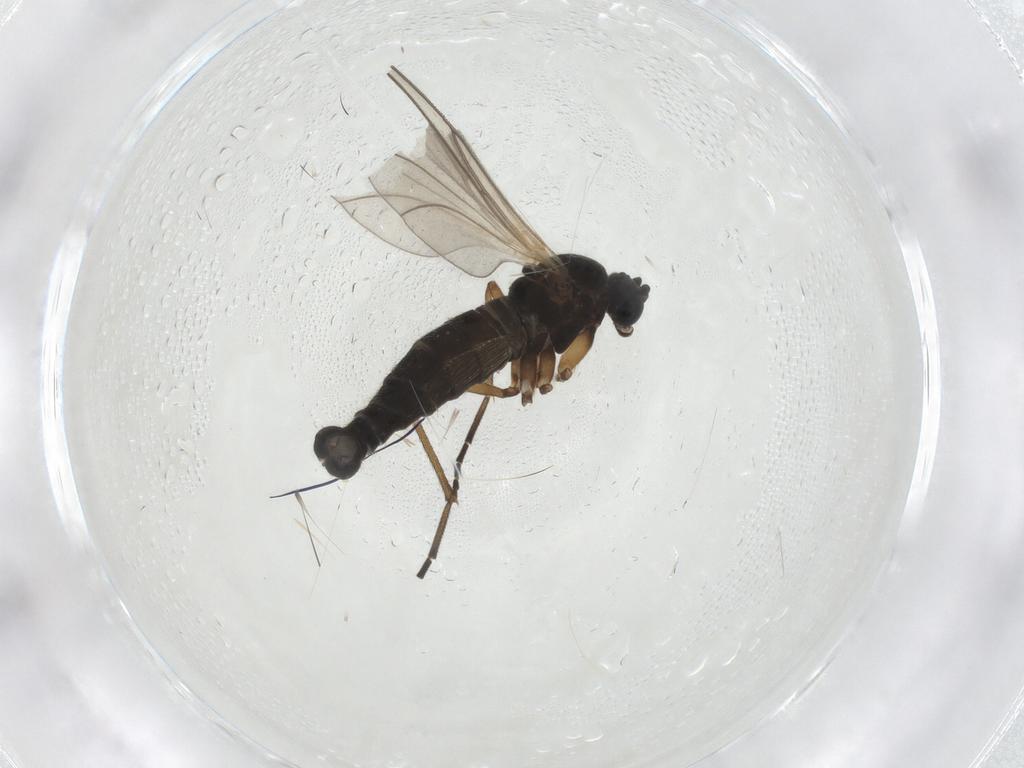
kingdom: Animalia
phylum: Arthropoda
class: Insecta
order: Diptera
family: Sciaridae
